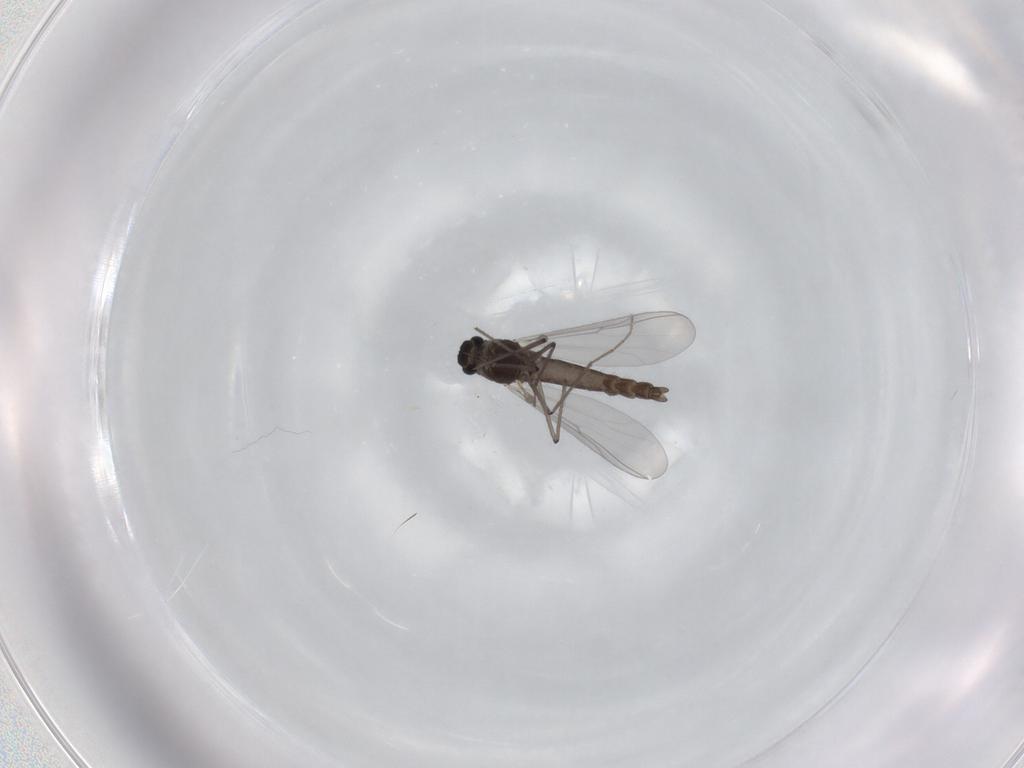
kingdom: Animalia
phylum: Arthropoda
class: Insecta
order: Diptera
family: Chironomidae
